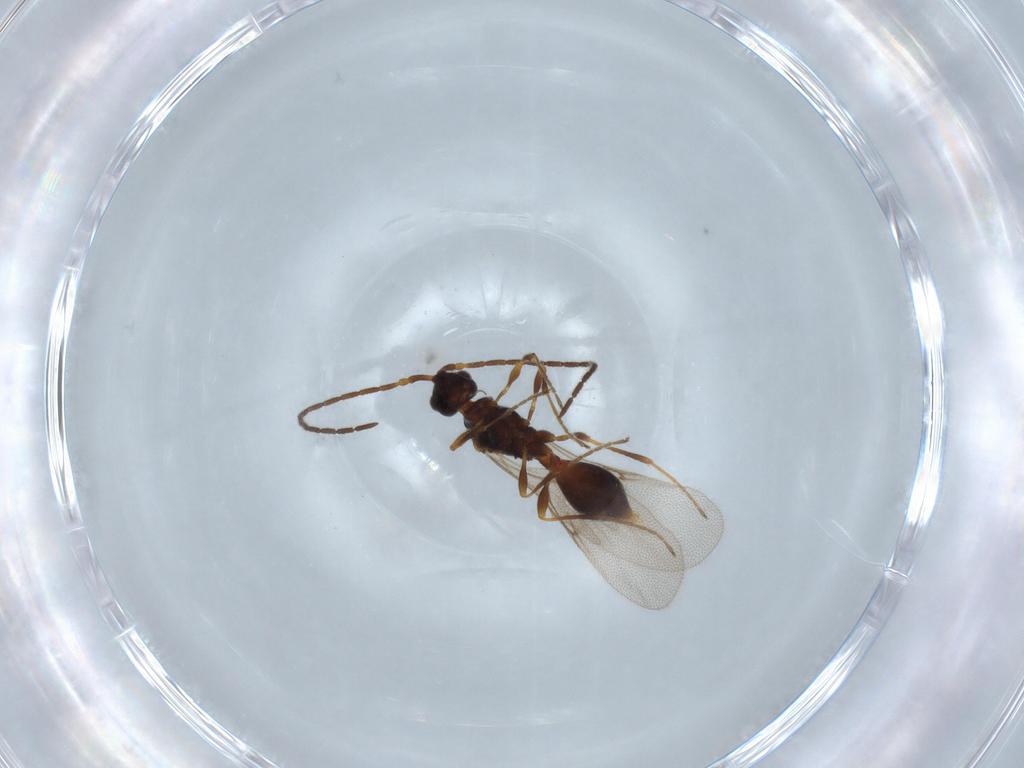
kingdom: Animalia
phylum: Arthropoda
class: Insecta
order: Hymenoptera
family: Diapriidae
